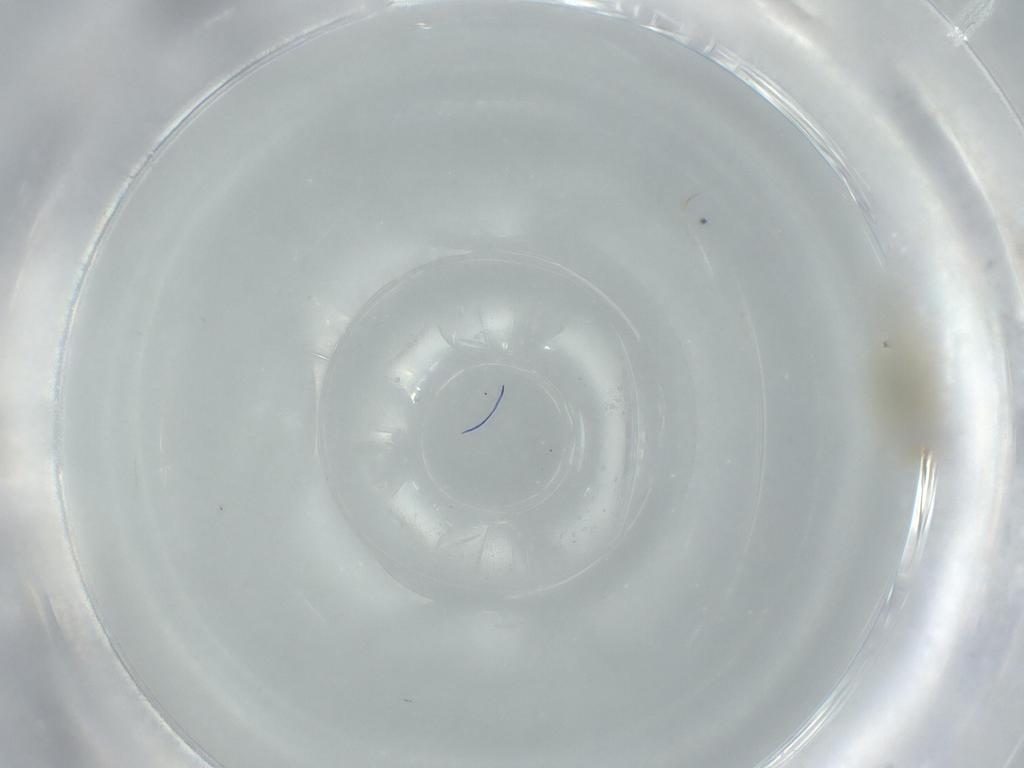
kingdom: Animalia
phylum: Arthropoda
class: Insecta
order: Diptera
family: Chironomidae
